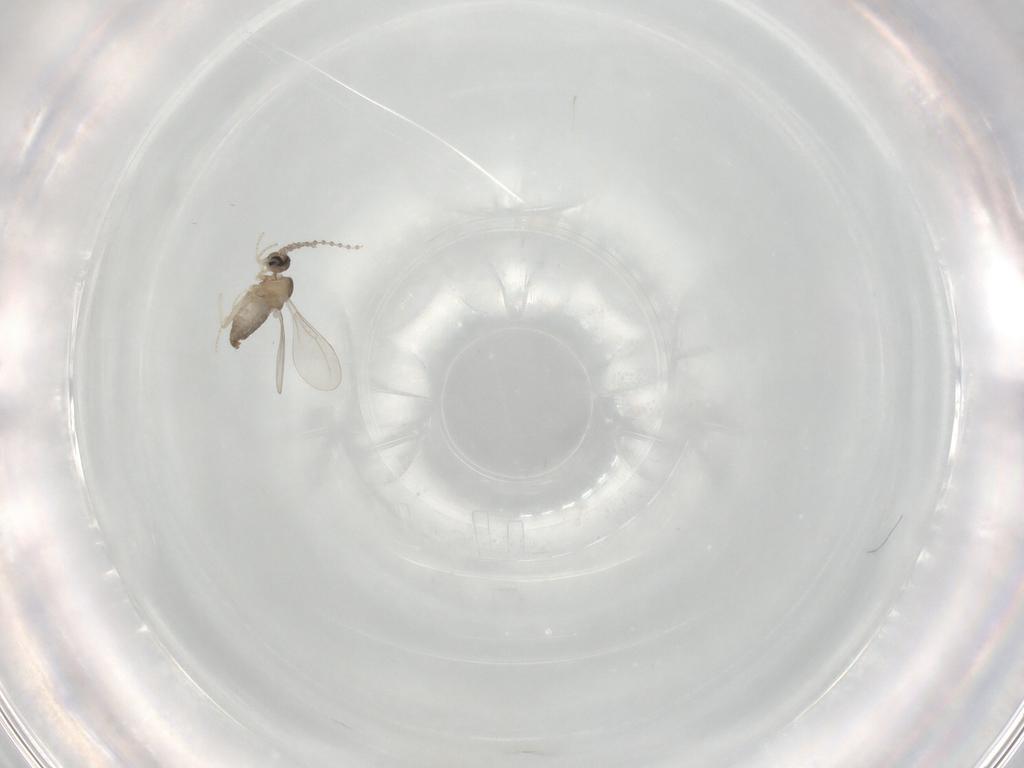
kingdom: Animalia
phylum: Arthropoda
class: Insecta
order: Diptera
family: Cecidomyiidae
